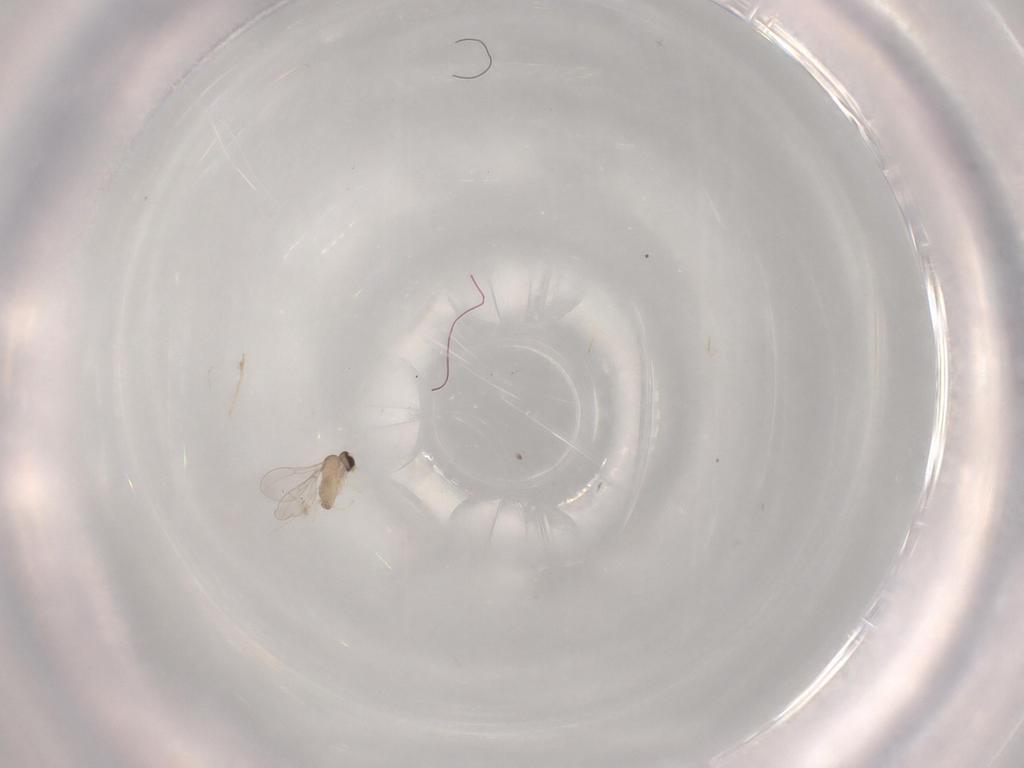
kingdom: Animalia
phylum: Arthropoda
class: Insecta
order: Diptera
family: Cecidomyiidae
